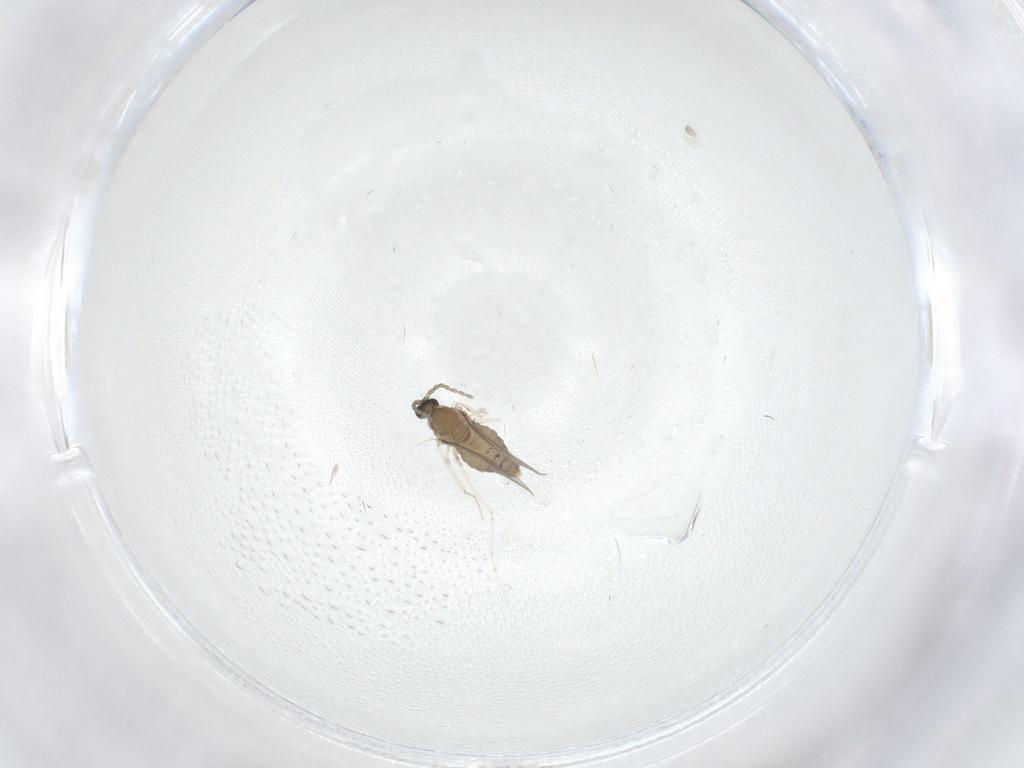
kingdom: Animalia
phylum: Arthropoda
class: Insecta
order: Diptera
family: Cecidomyiidae
